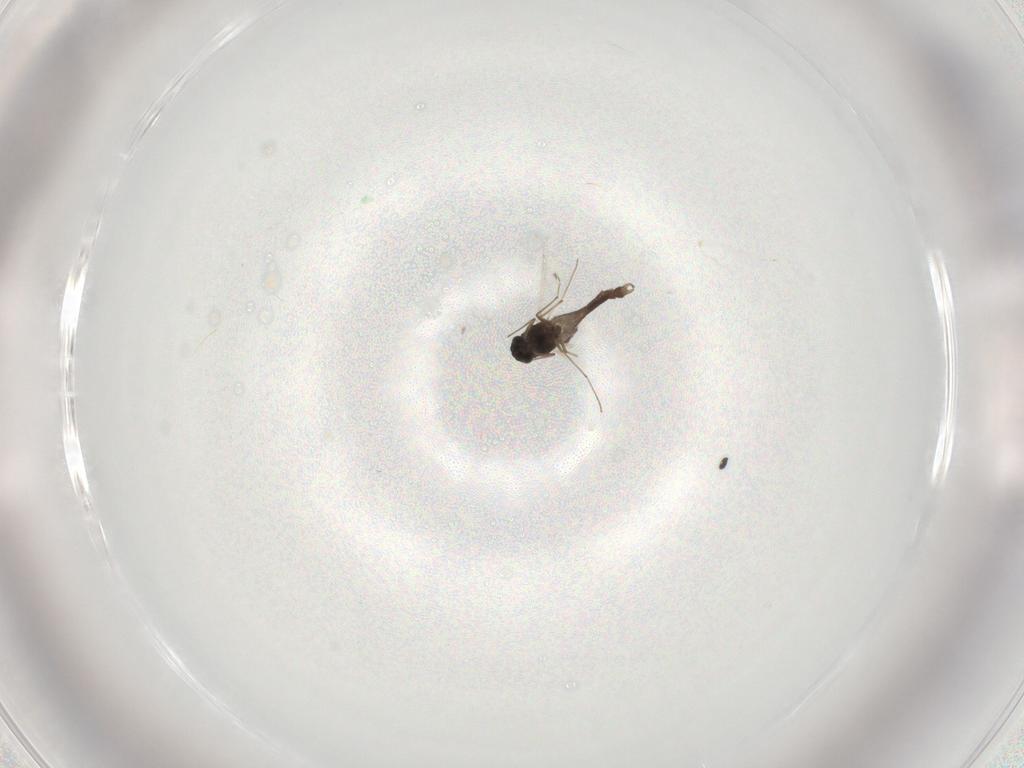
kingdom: Animalia
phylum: Arthropoda
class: Insecta
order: Diptera
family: Chironomidae
